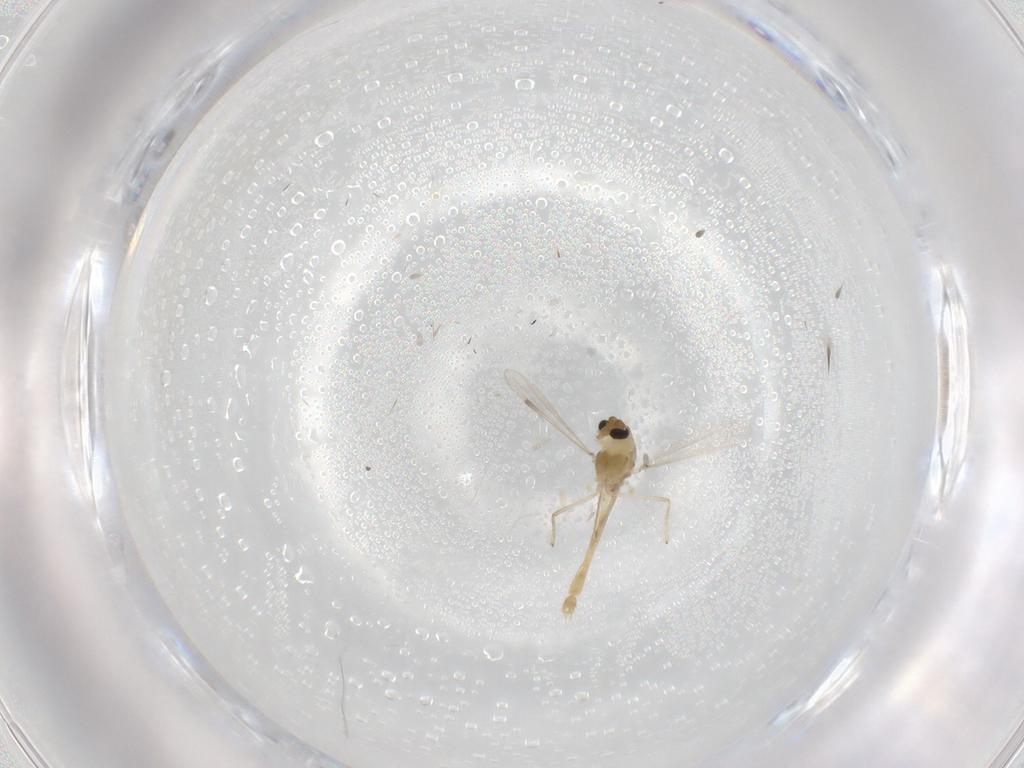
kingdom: Animalia
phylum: Arthropoda
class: Insecta
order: Diptera
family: Chironomidae
